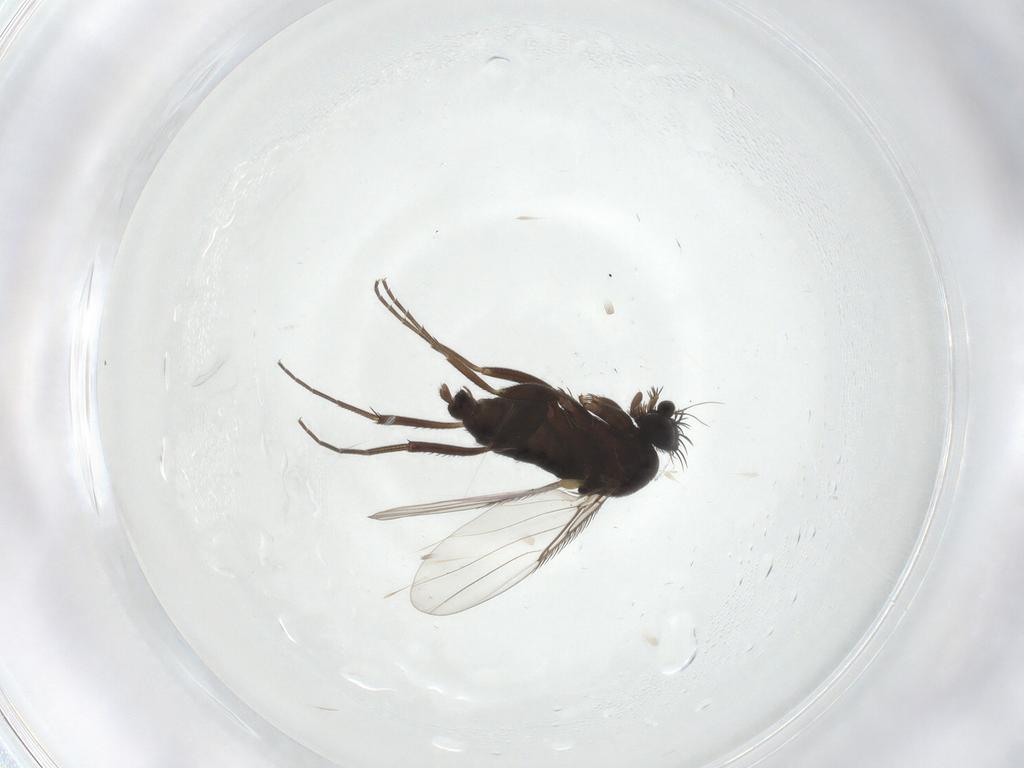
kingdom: Animalia
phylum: Arthropoda
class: Insecta
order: Diptera
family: Phoridae
